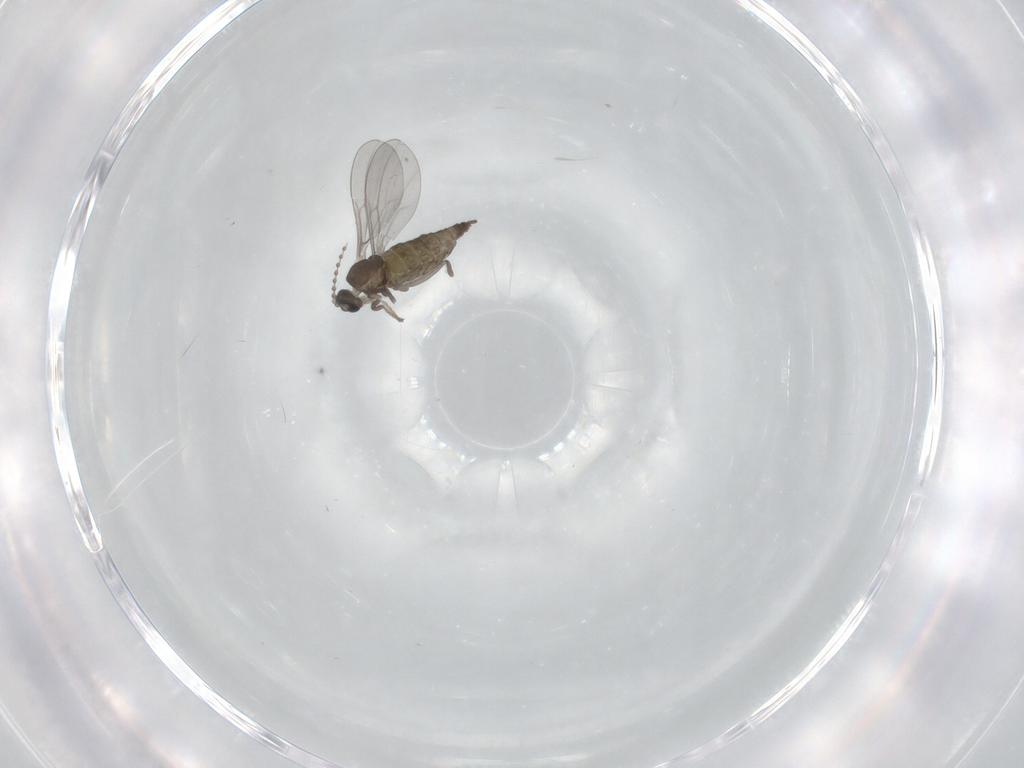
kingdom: Animalia
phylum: Arthropoda
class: Insecta
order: Diptera
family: Cecidomyiidae
